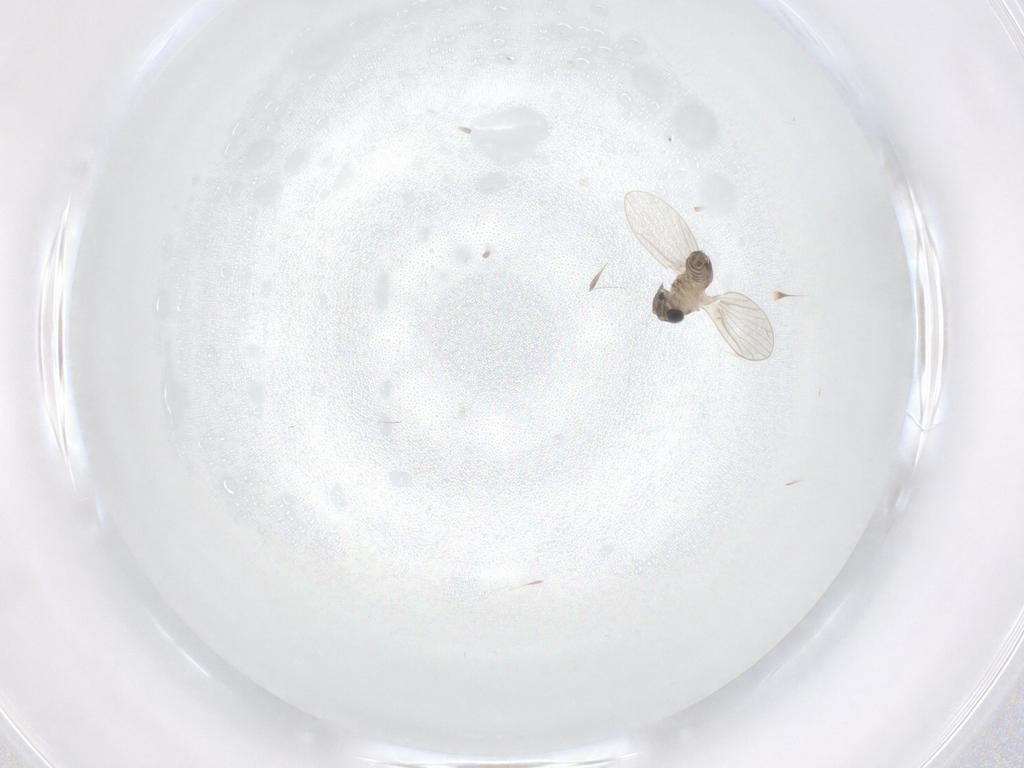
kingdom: Animalia
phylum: Arthropoda
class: Insecta
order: Diptera
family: Psychodidae
